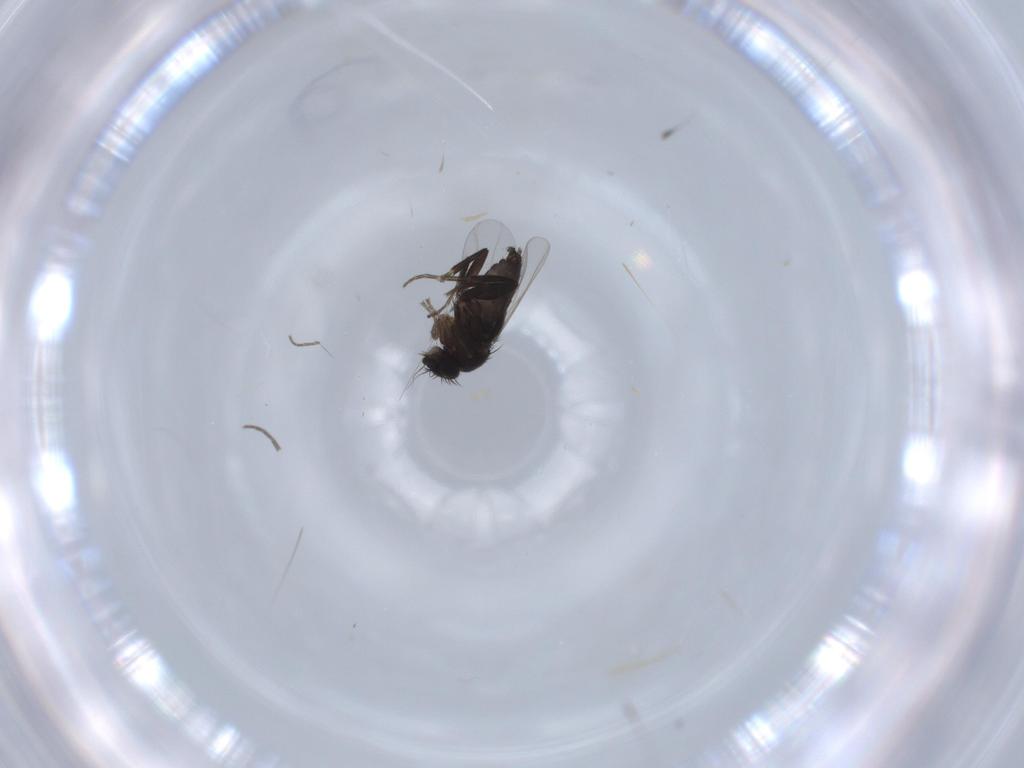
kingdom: Animalia
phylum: Arthropoda
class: Insecta
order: Diptera
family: Phoridae
